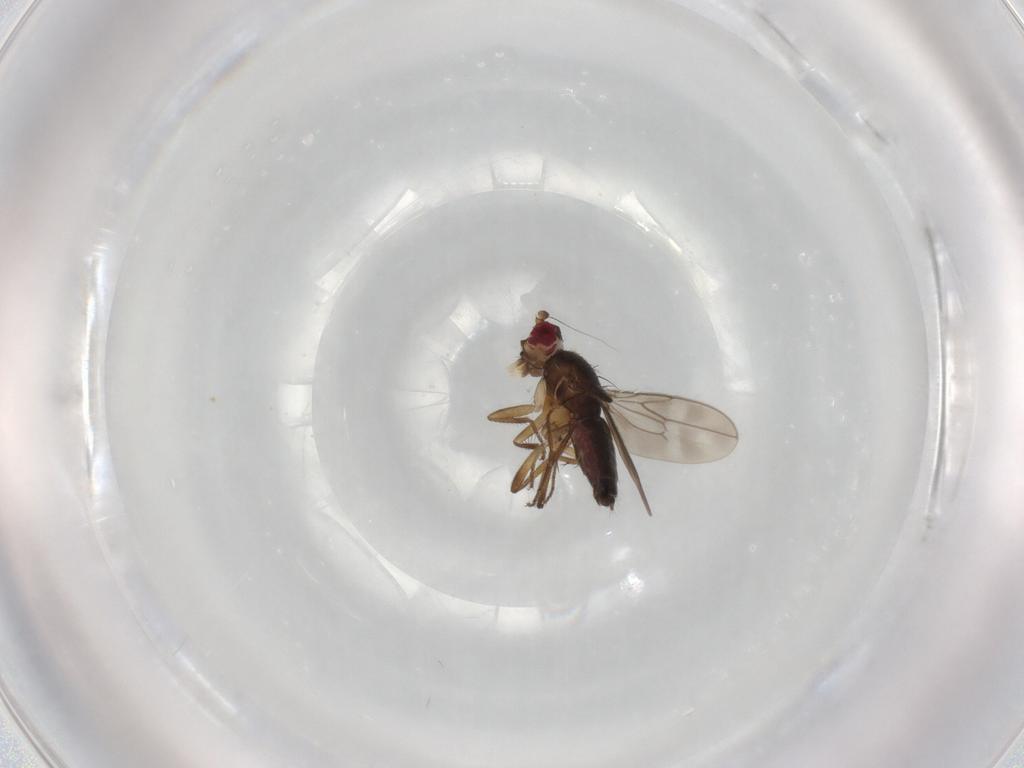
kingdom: Animalia
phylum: Arthropoda
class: Insecta
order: Diptera
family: Sphaeroceridae
